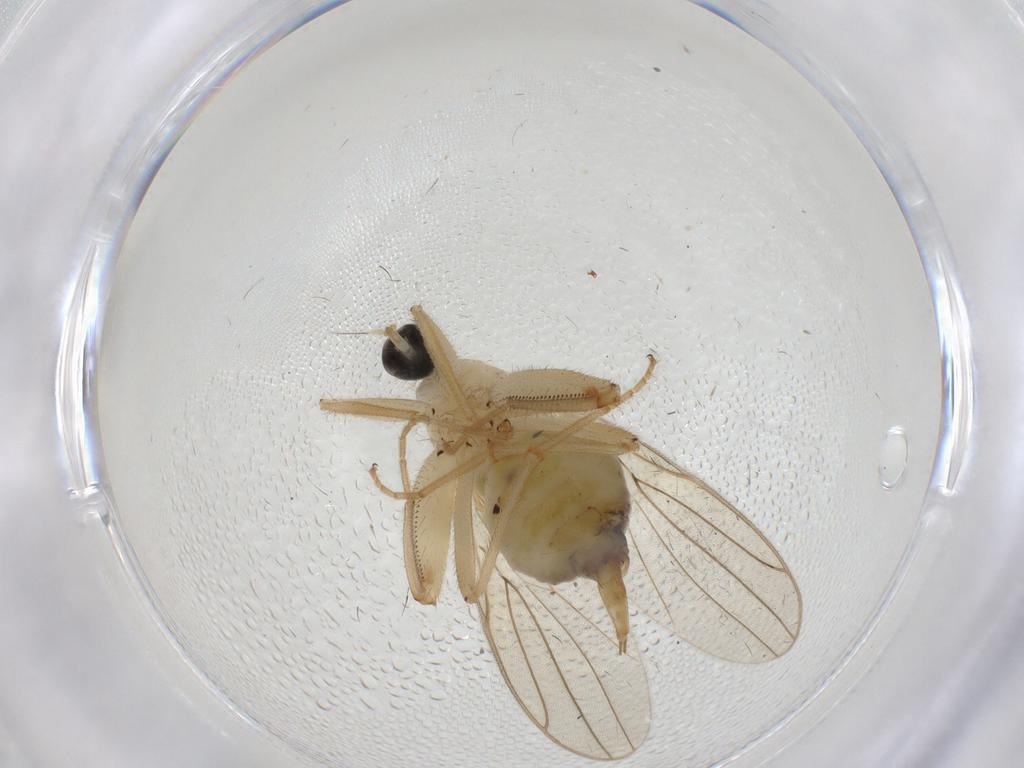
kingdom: Animalia
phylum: Arthropoda
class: Insecta
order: Diptera
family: Hybotidae
